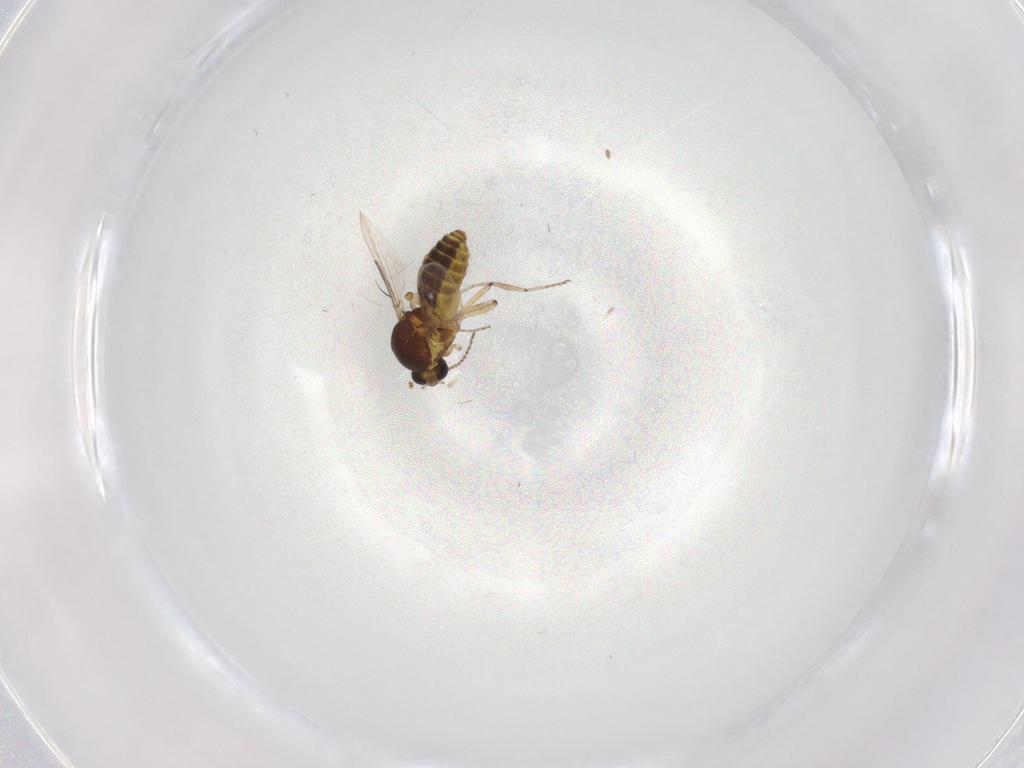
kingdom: Animalia
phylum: Arthropoda
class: Insecta
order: Diptera
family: Ceratopogonidae
